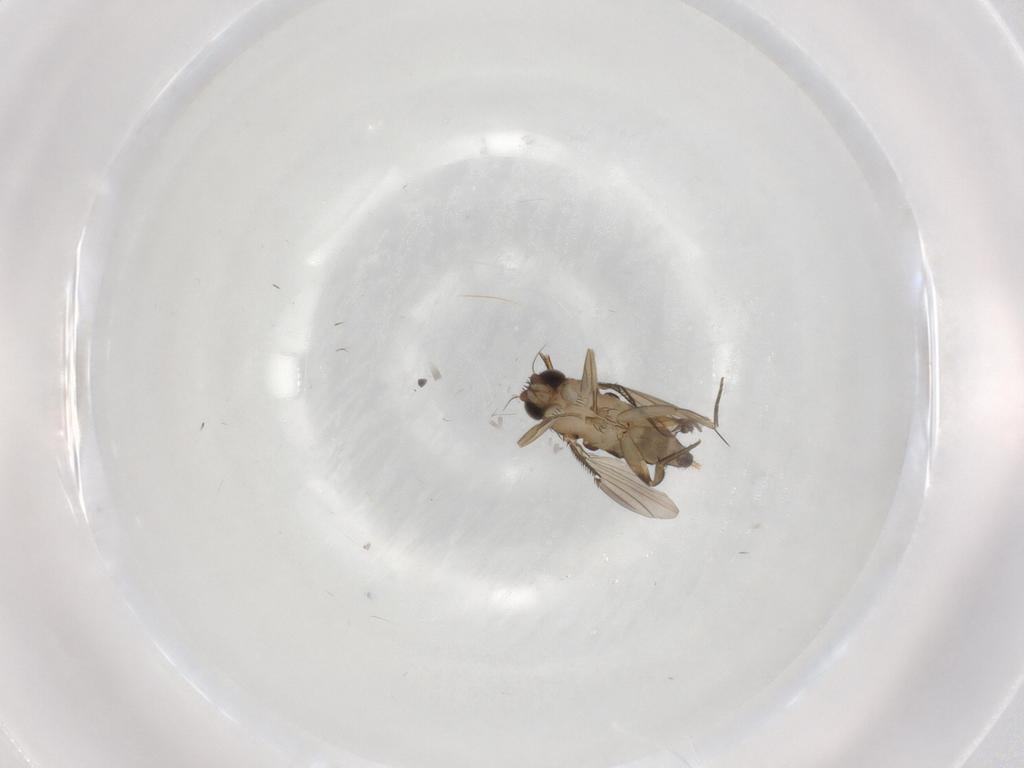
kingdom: Animalia
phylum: Arthropoda
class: Insecta
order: Diptera
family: Phoridae
